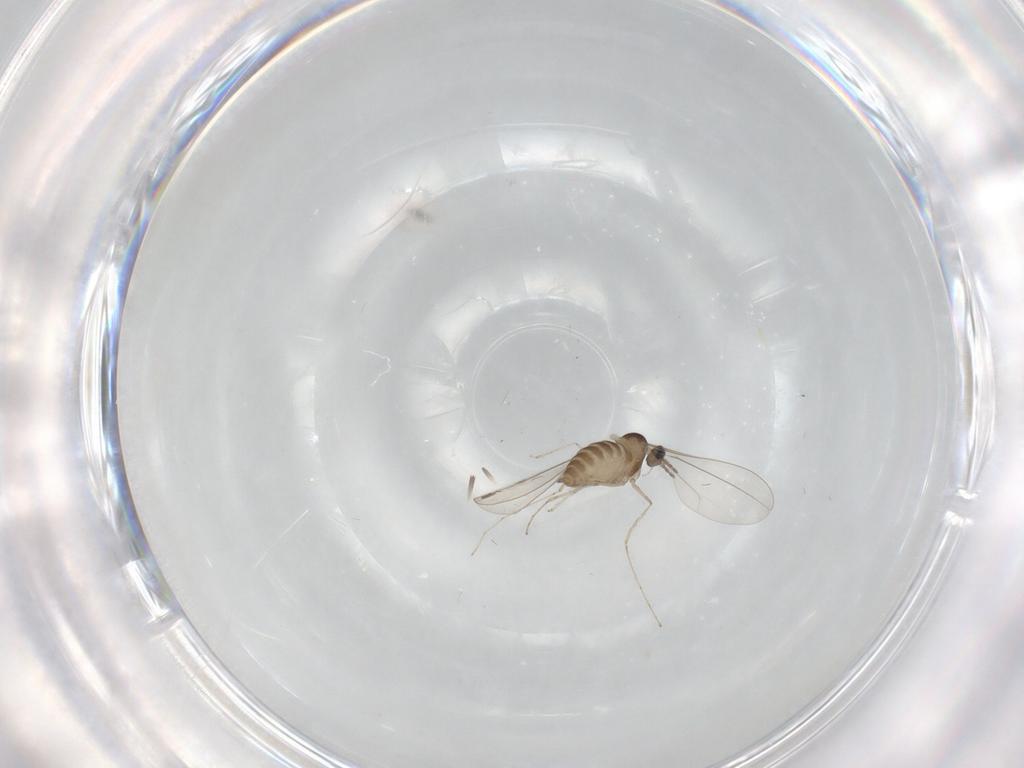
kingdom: Animalia
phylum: Arthropoda
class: Insecta
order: Diptera
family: Cecidomyiidae
